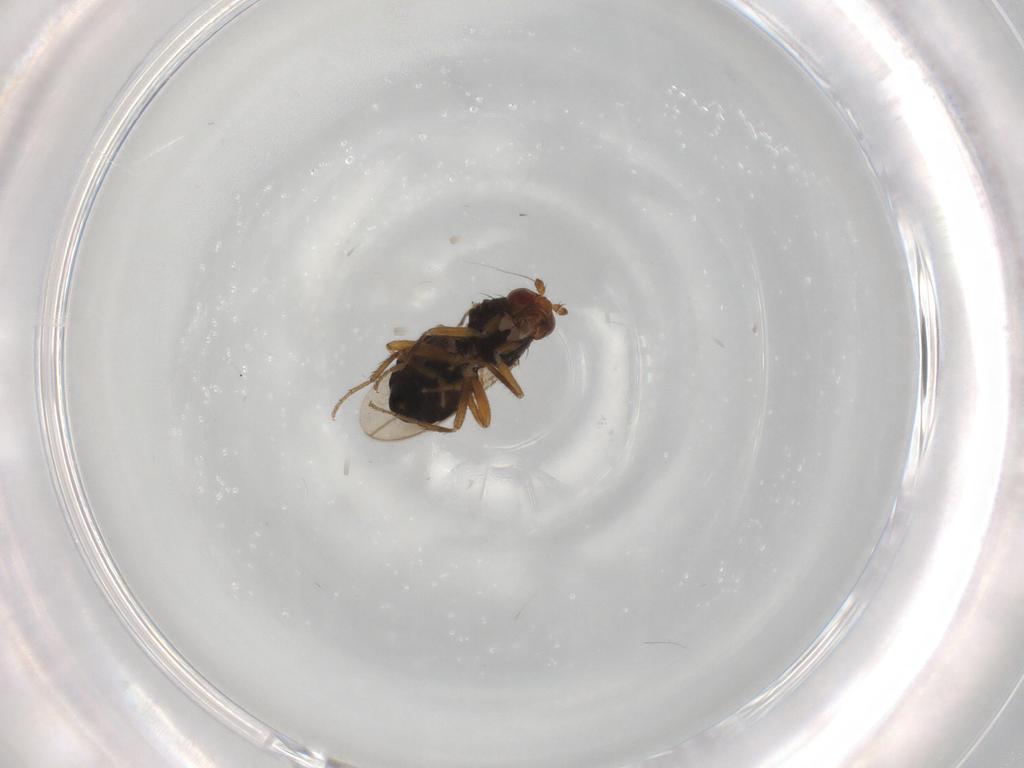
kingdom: Animalia
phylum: Arthropoda
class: Insecta
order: Diptera
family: Sphaeroceridae
